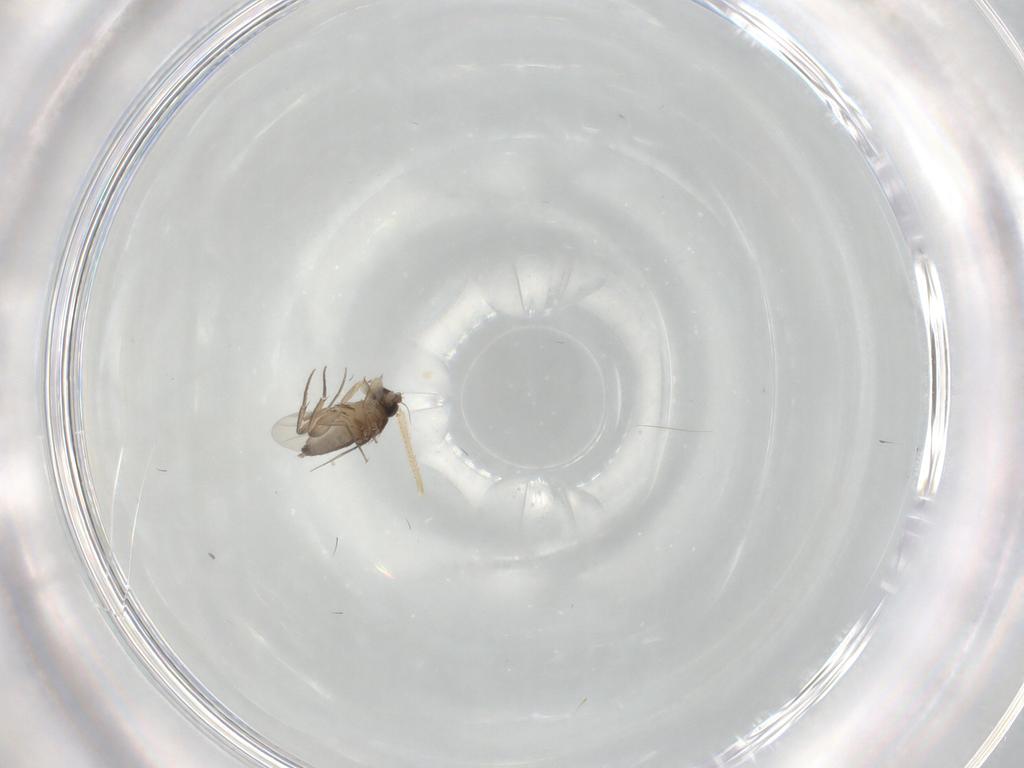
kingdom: Animalia
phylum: Arthropoda
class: Insecta
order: Diptera
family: Phoridae
